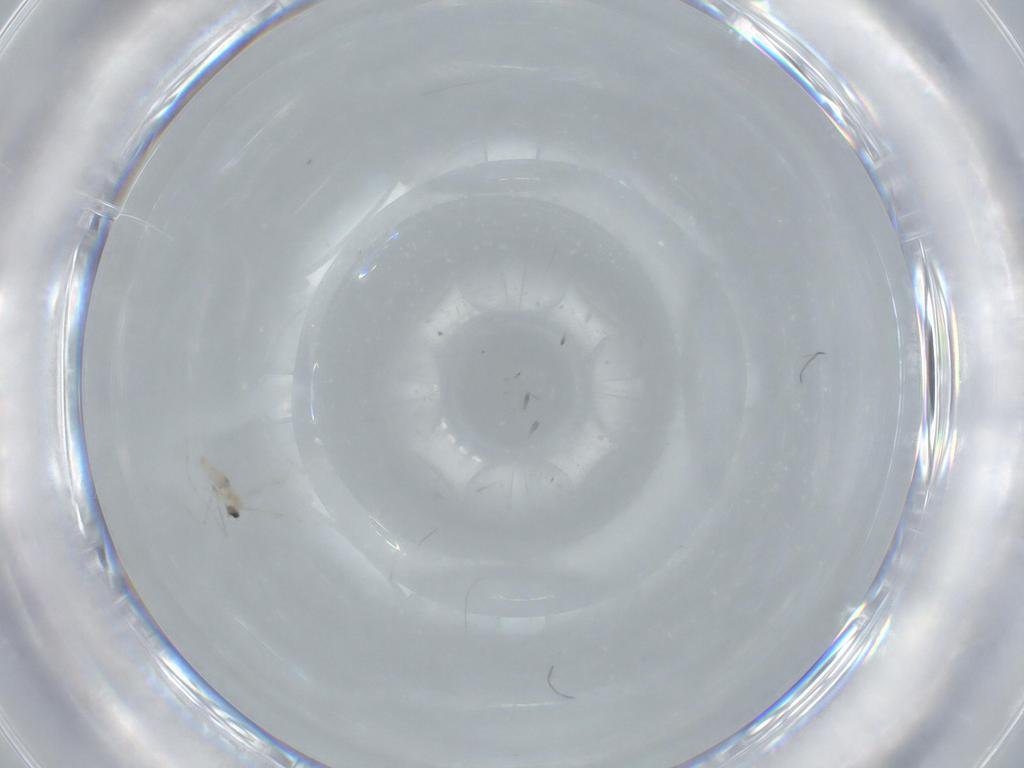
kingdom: Animalia
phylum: Arthropoda
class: Insecta
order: Diptera
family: Cecidomyiidae
